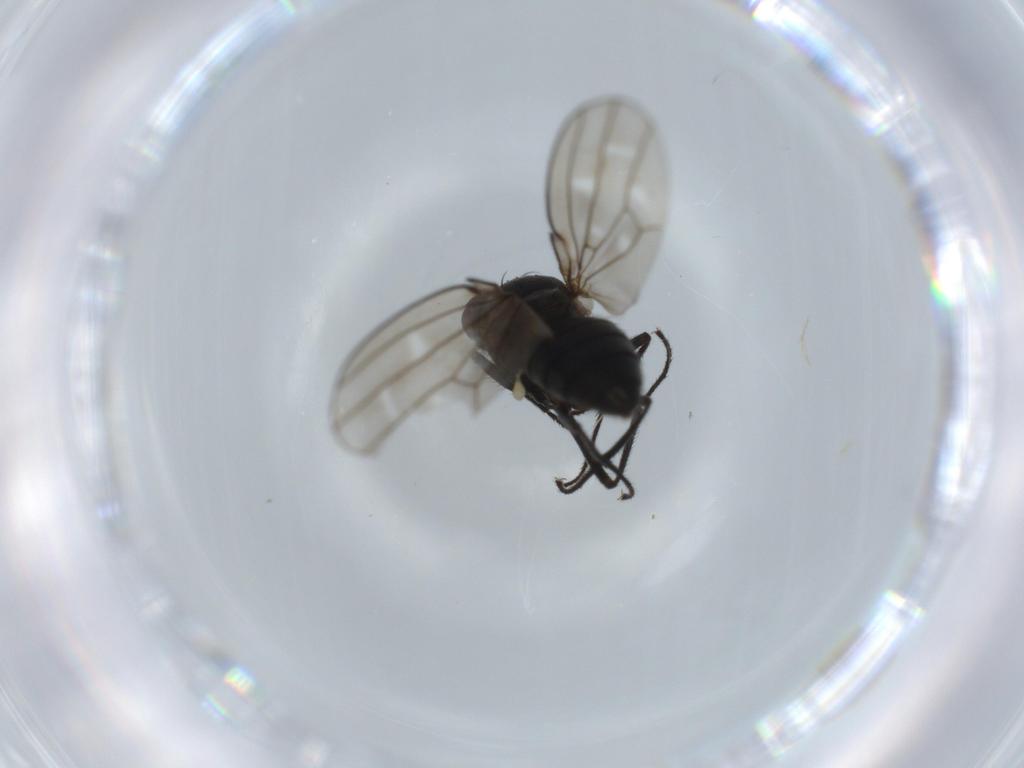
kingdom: Animalia
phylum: Arthropoda
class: Insecta
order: Diptera
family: Ephydridae
